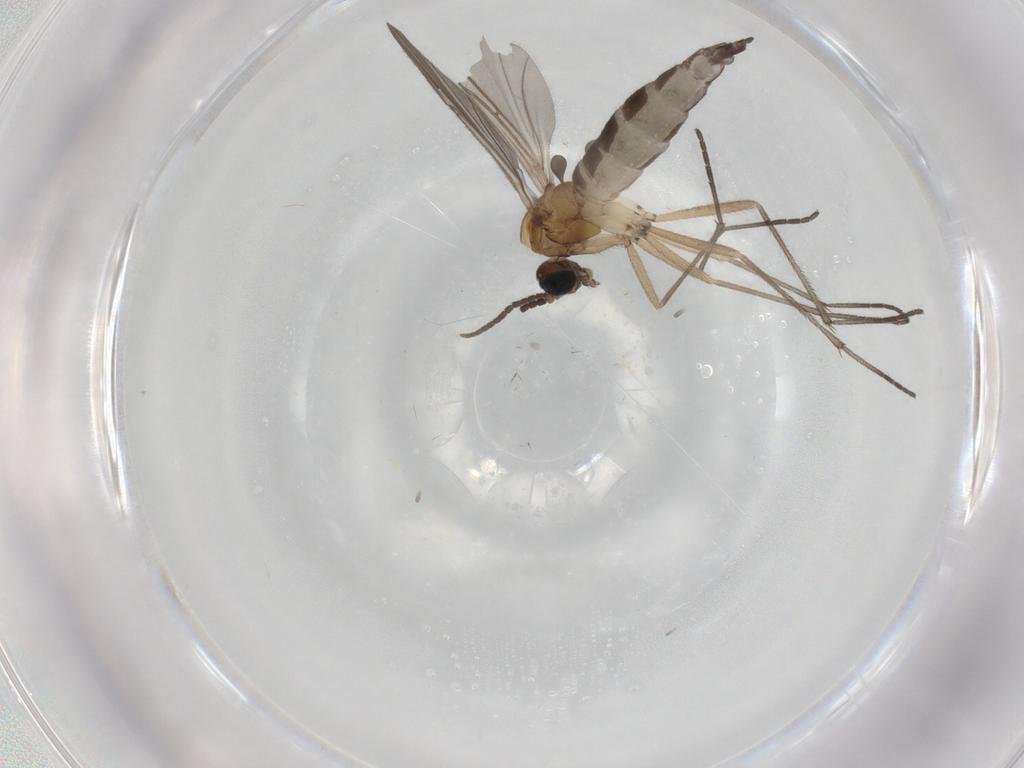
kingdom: Animalia
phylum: Arthropoda
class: Insecta
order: Diptera
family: Sciaridae
